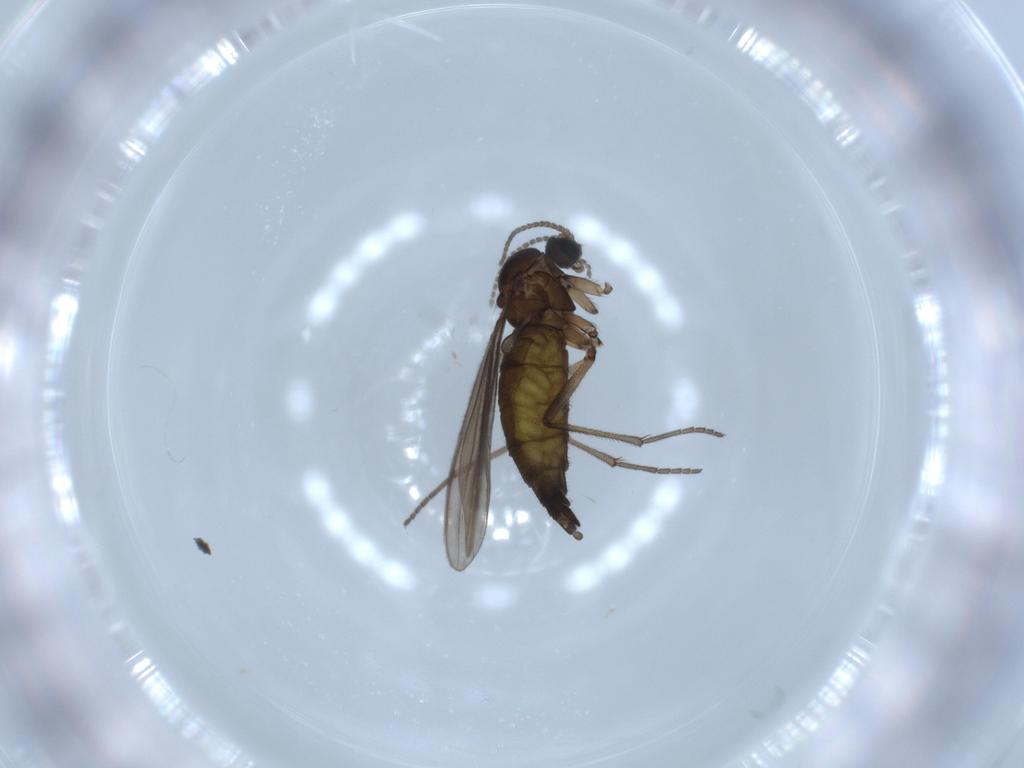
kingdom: Animalia
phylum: Arthropoda
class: Insecta
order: Diptera
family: Sciaridae
